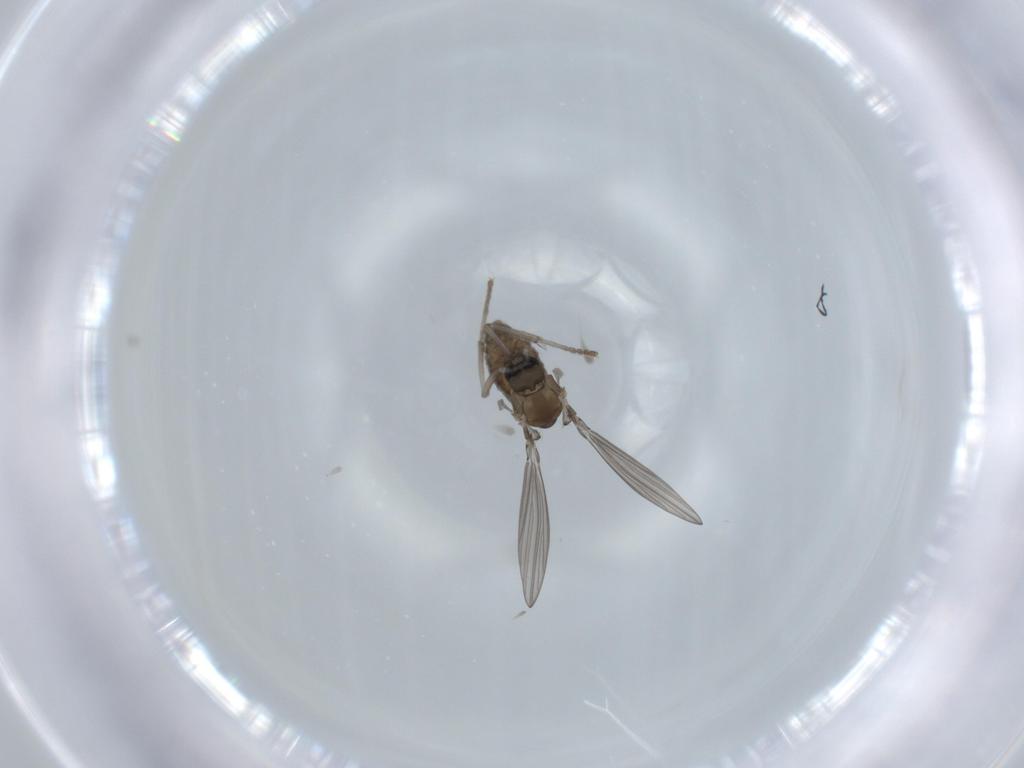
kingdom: Animalia
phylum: Arthropoda
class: Insecta
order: Diptera
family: Psychodidae
